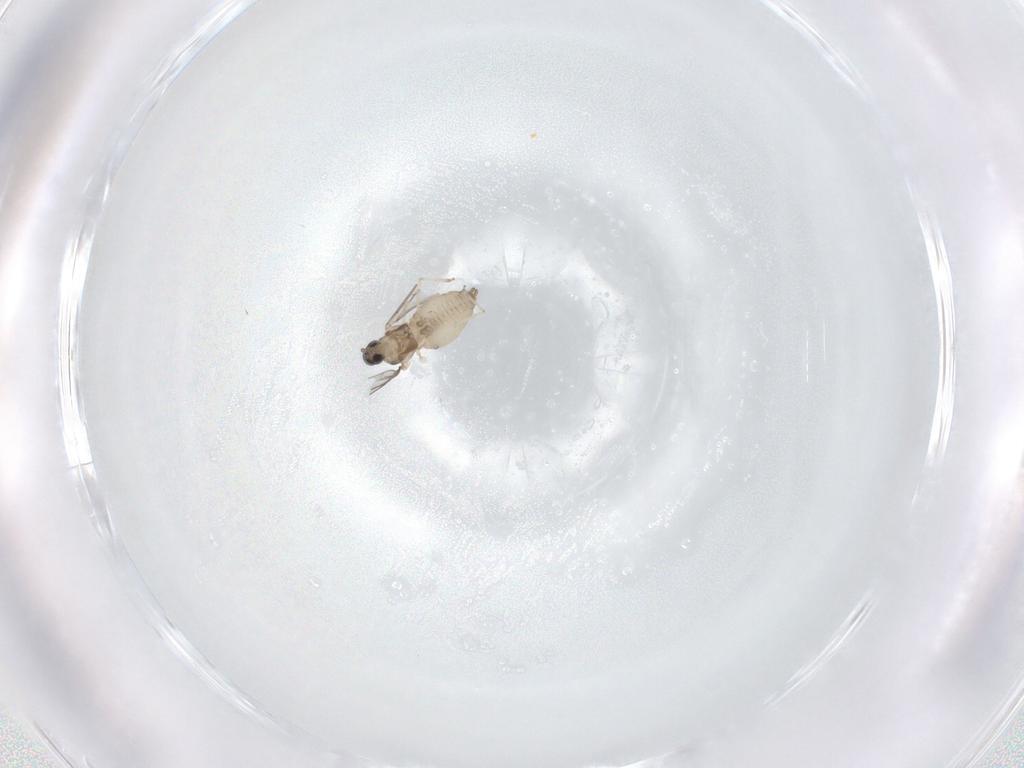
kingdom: Animalia
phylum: Arthropoda
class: Insecta
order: Diptera
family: Cecidomyiidae
